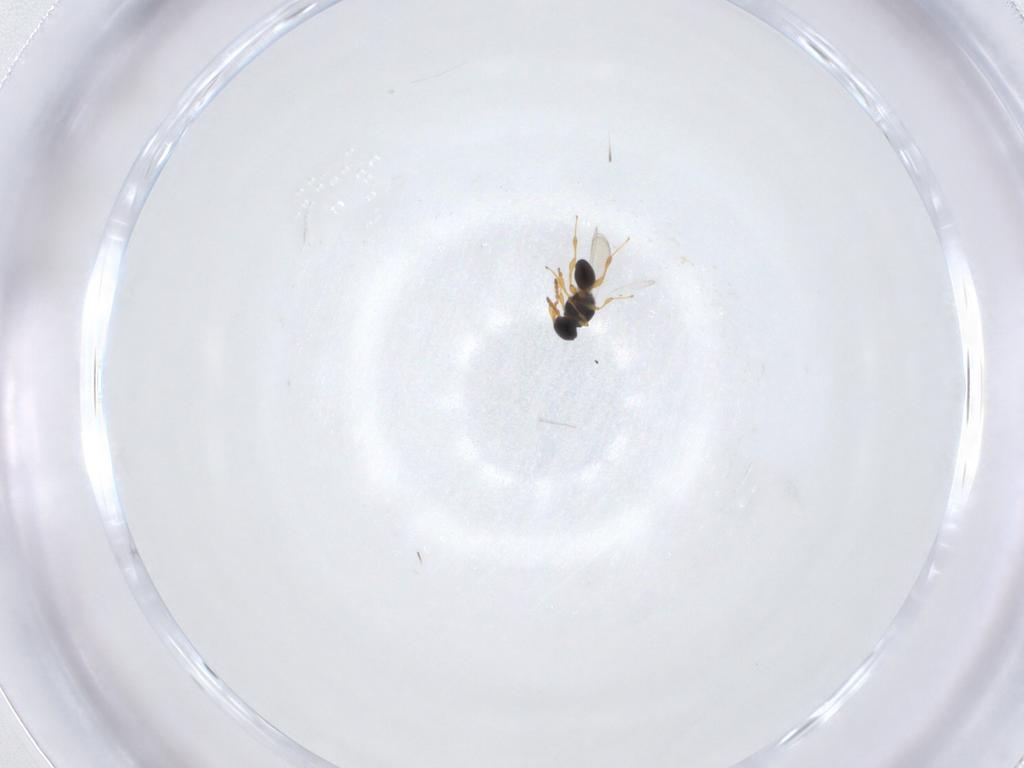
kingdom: Animalia
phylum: Arthropoda
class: Insecta
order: Hymenoptera
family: Platygastridae
